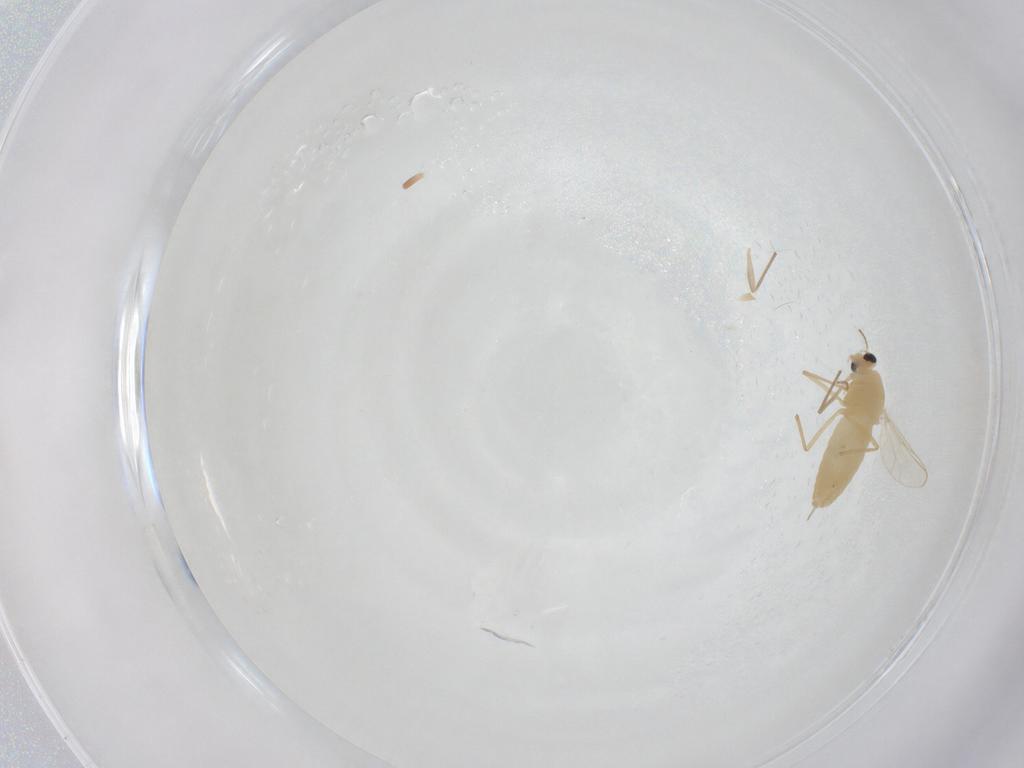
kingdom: Animalia
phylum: Arthropoda
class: Insecta
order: Diptera
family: Chironomidae
